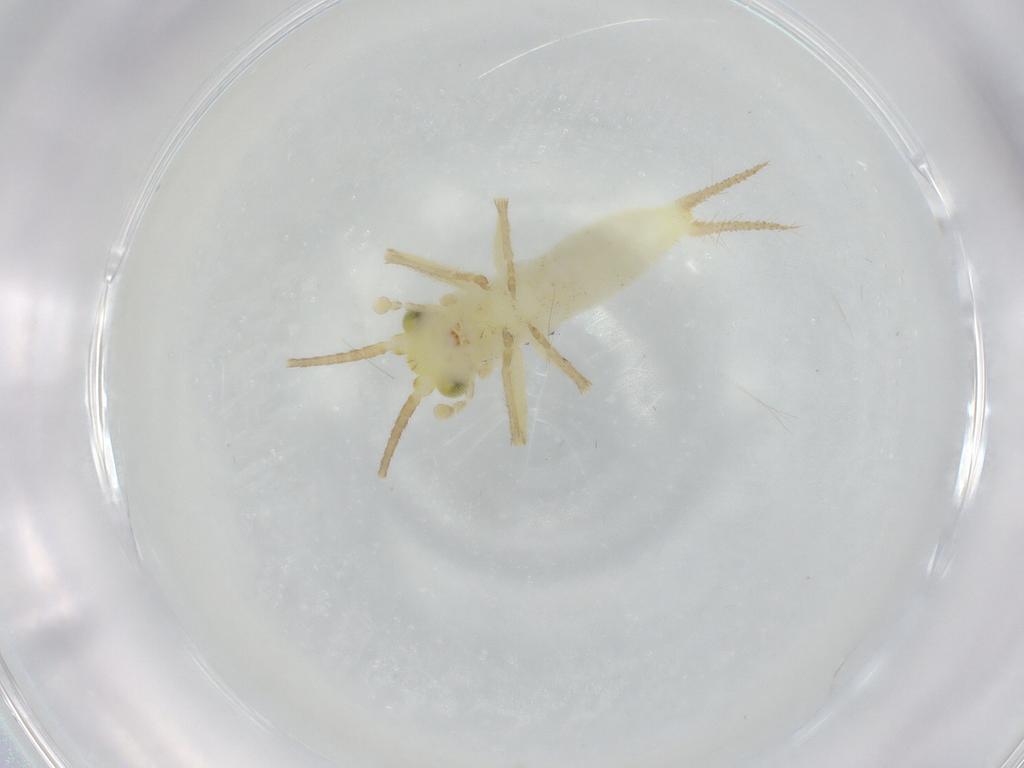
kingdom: Animalia
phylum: Arthropoda
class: Insecta
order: Orthoptera
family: Trigonidiidae
